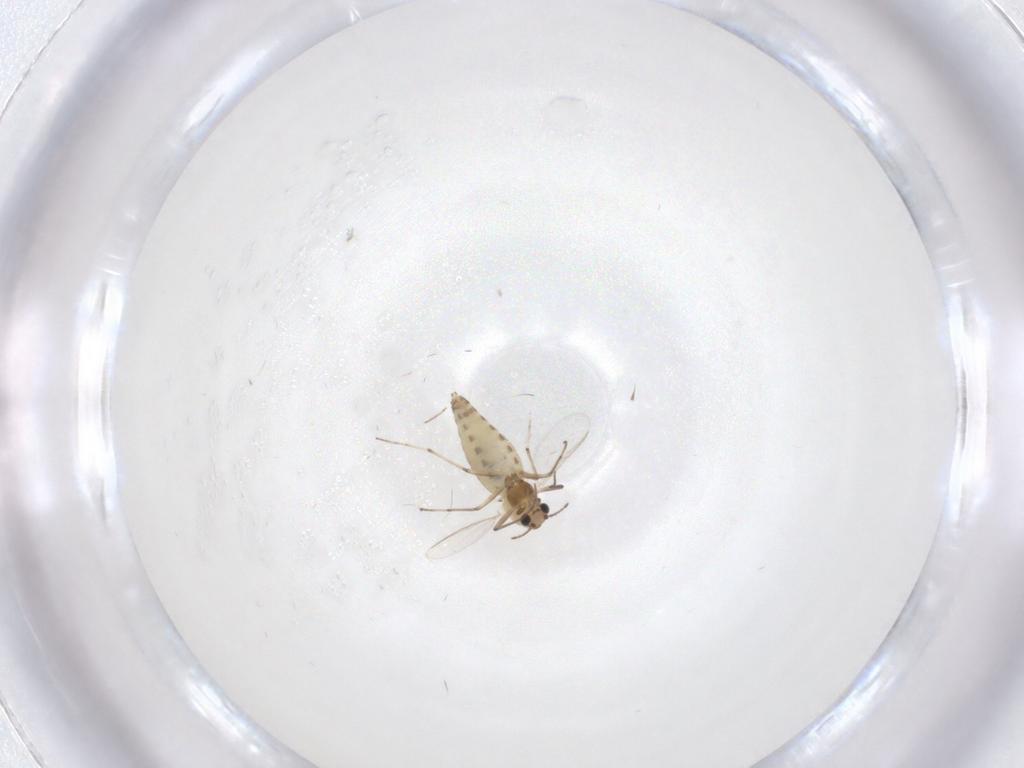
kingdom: Animalia
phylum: Arthropoda
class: Insecta
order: Diptera
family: Chironomidae
